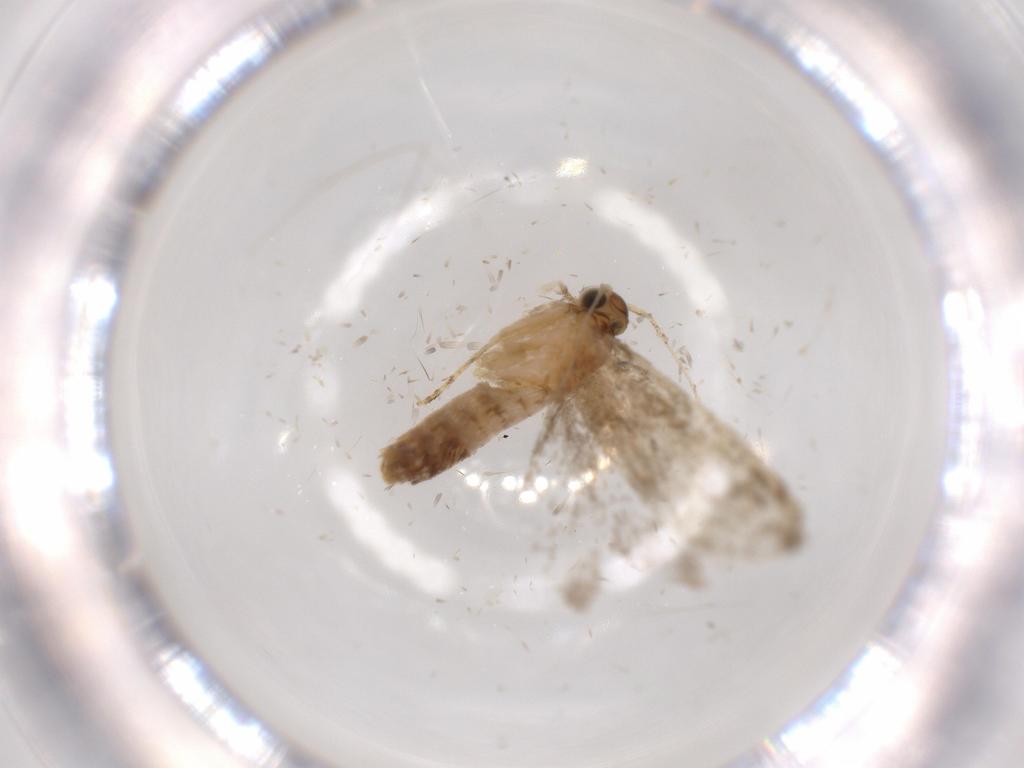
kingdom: Animalia
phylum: Arthropoda
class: Insecta
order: Lepidoptera
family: Tineidae
